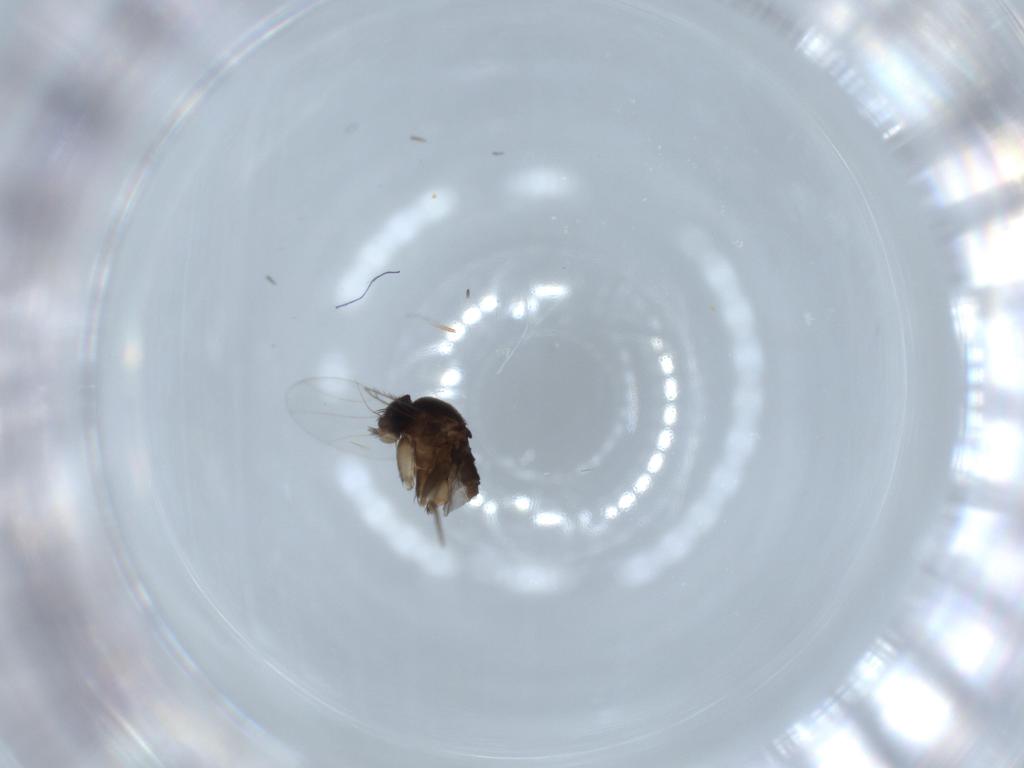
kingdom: Animalia
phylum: Arthropoda
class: Insecta
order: Diptera
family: Phoridae
